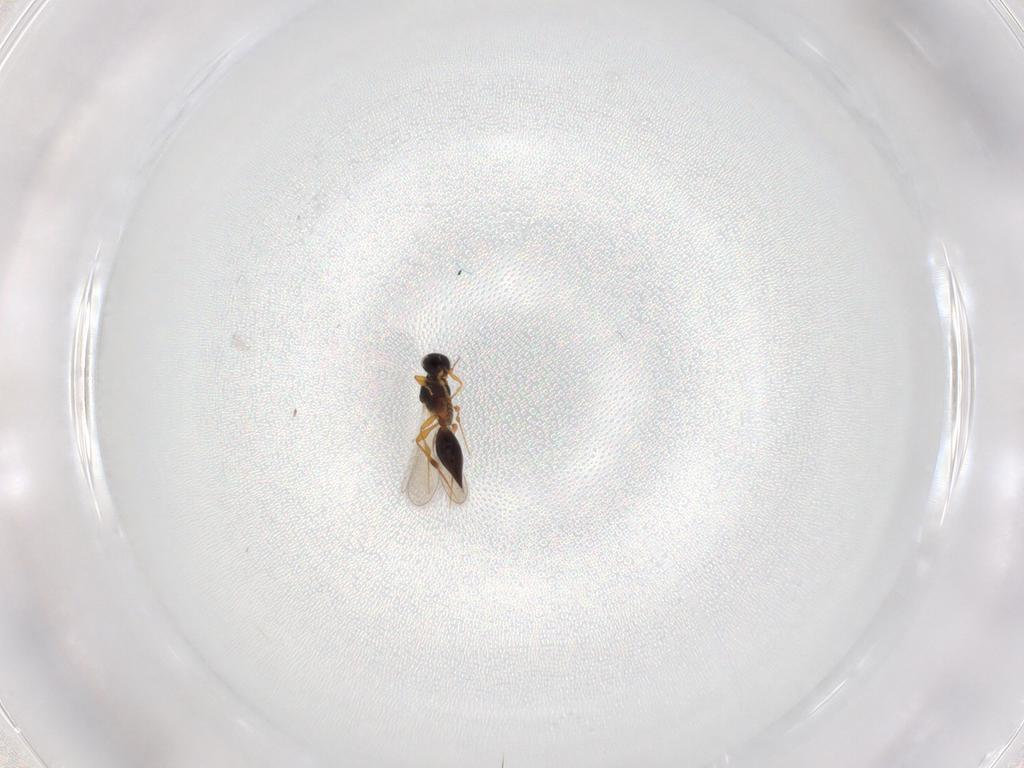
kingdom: Animalia
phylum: Arthropoda
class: Insecta
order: Hymenoptera
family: Platygastridae
